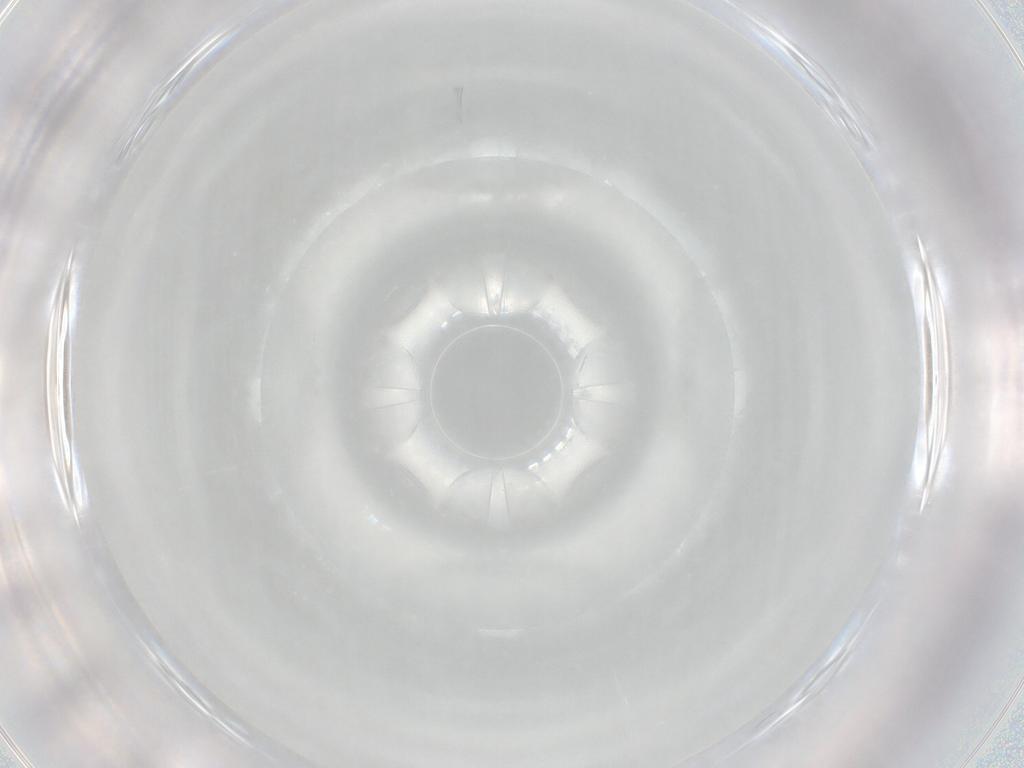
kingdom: Animalia
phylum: Arthropoda
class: Insecta
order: Diptera
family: Sciaridae
